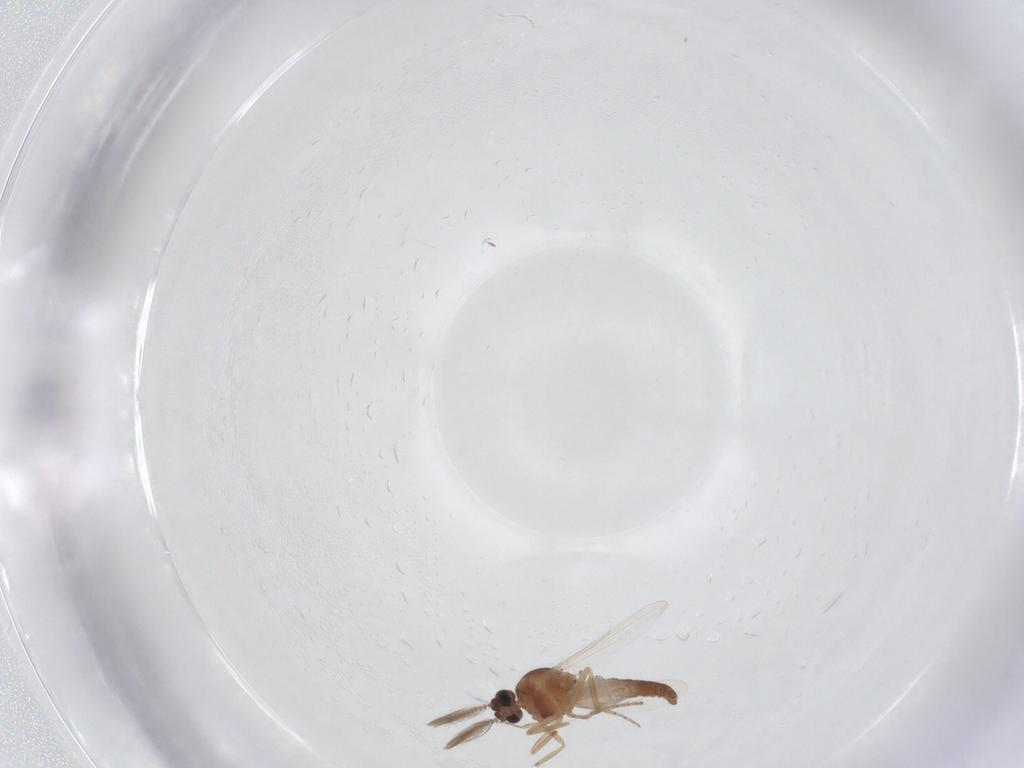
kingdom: Animalia
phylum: Arthropoda
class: Insecta
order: Diptera
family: Ceratopogonidae
